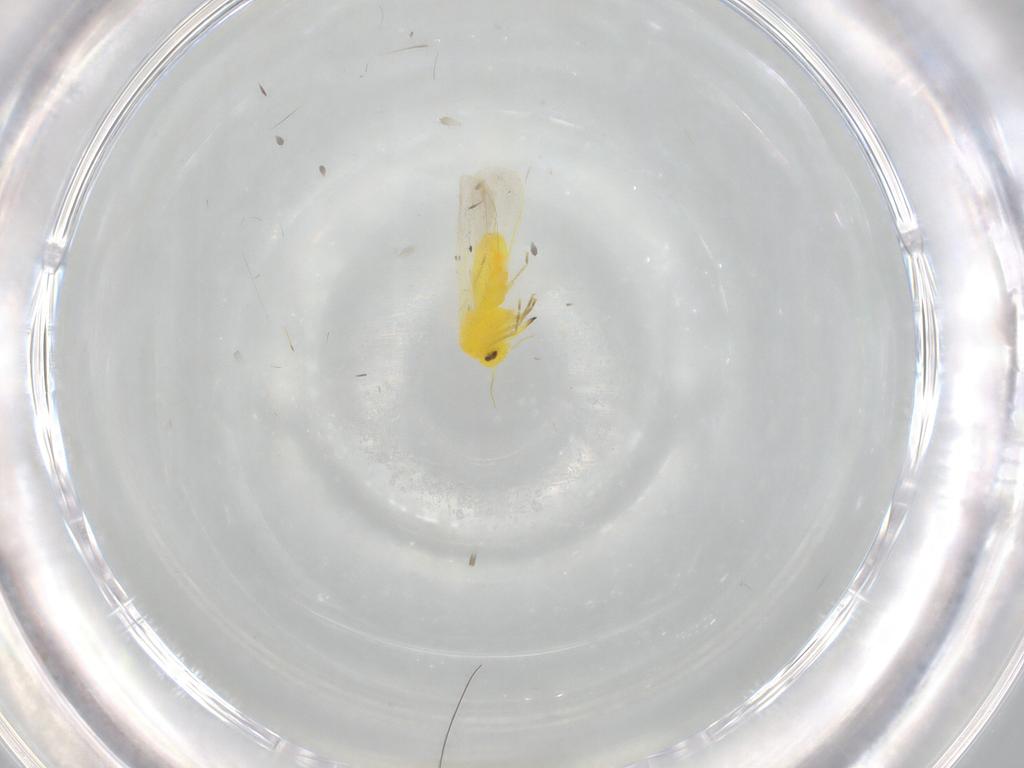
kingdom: Animalia
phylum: Arthropoda
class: Insecta
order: Hemiptera
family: Aleyrodidae
